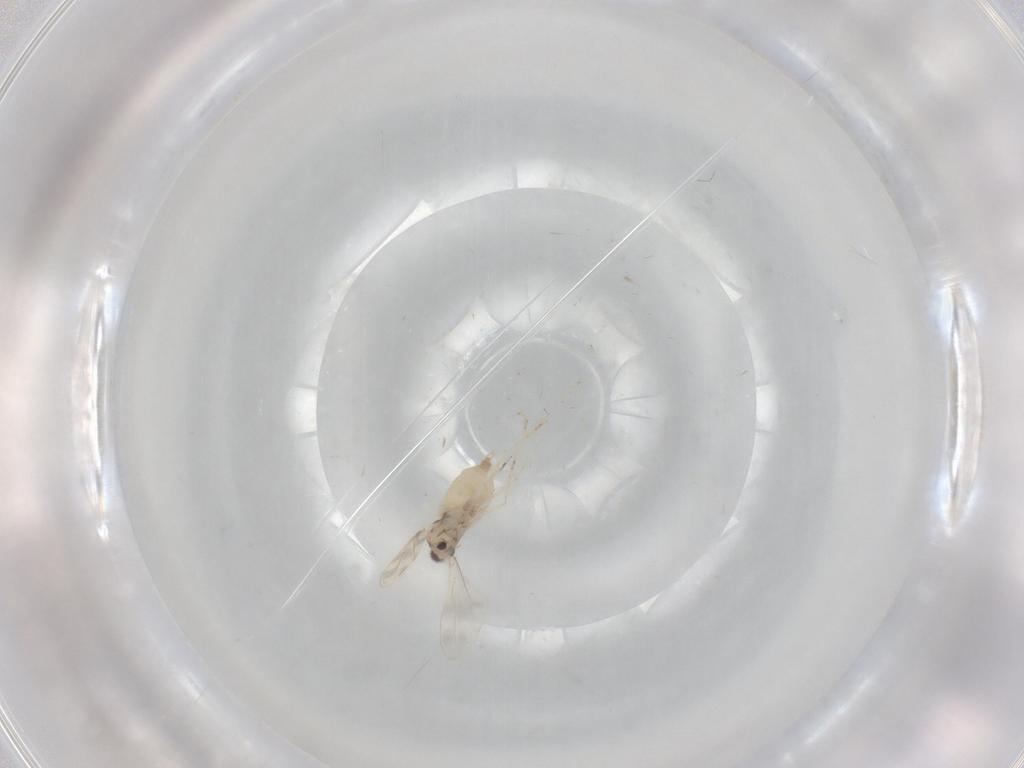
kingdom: Animalia
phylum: Arthropoda
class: Insecta
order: Diptera
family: Cecidomyiidae
